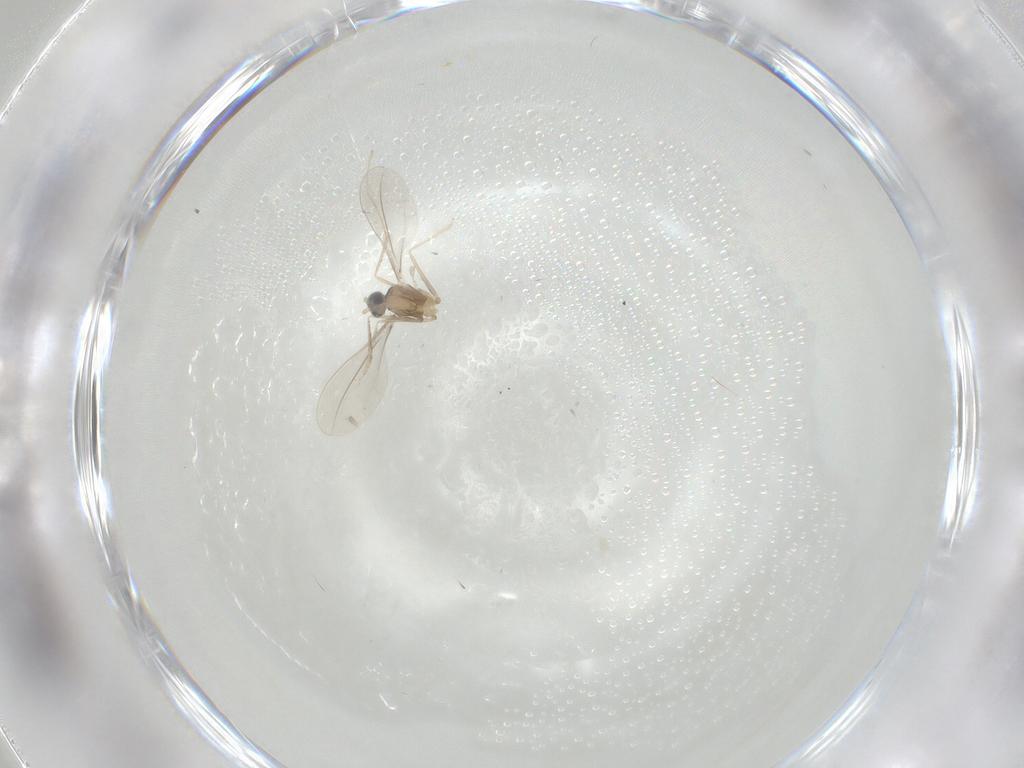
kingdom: Animalia
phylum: Arthropoda
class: Insecta
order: Diptera
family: Cecidomyiidae
